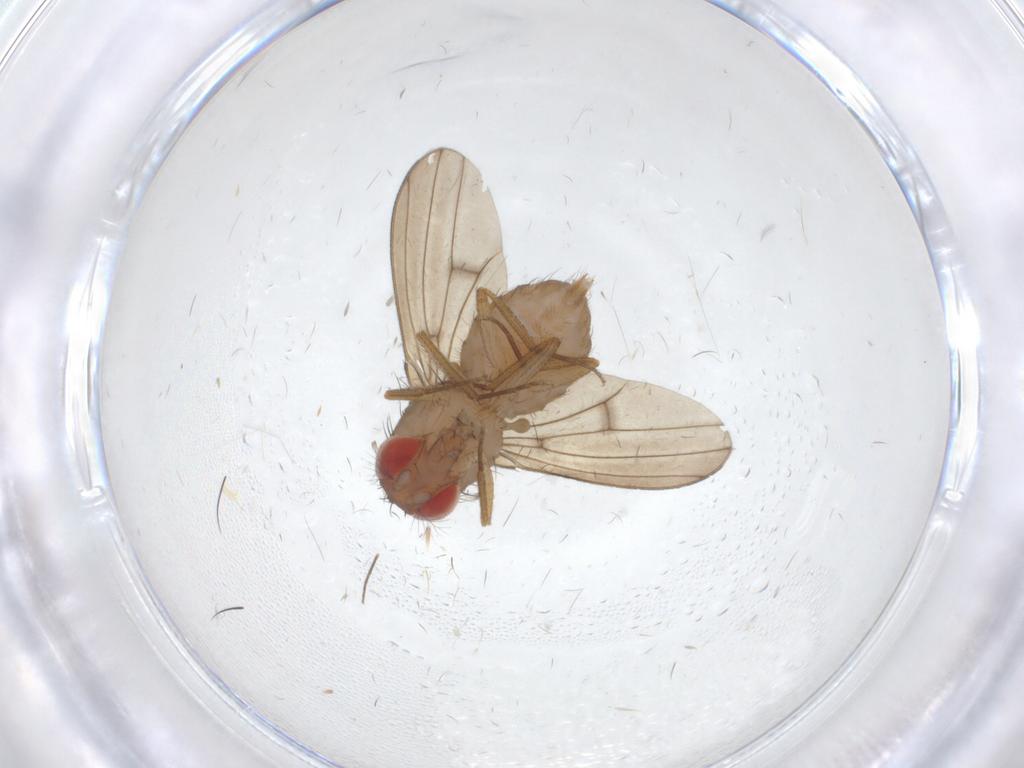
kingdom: Animalia
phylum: Arthropoda
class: Insecta
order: Diptera
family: Drosophilidae
